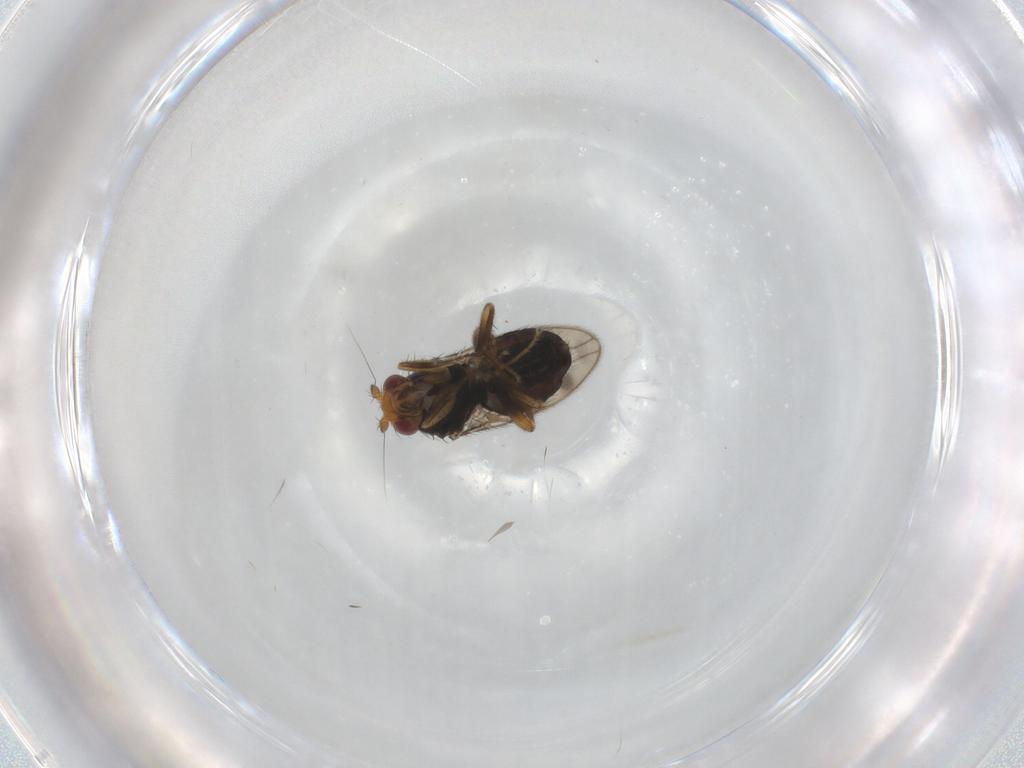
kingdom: Animalia
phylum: Arthropoda
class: Insecta
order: Diptera
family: Sphaeroceridae
